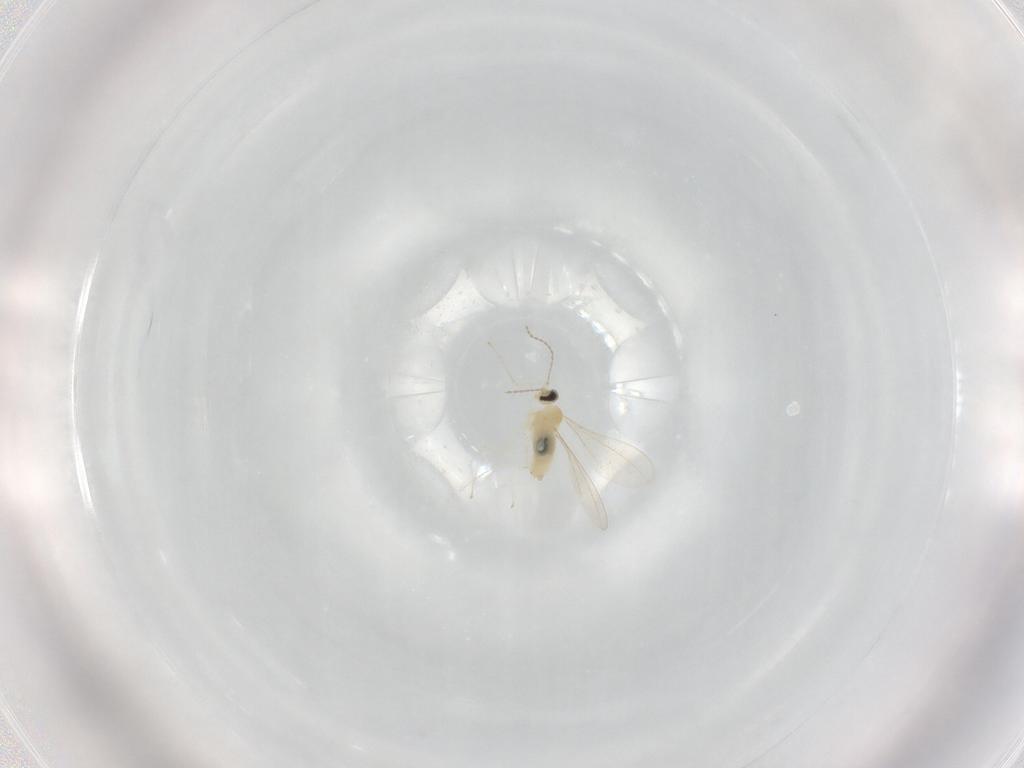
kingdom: Animalia
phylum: Arthropoda
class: Insecta
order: Diptera
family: Cecidomyiidae
